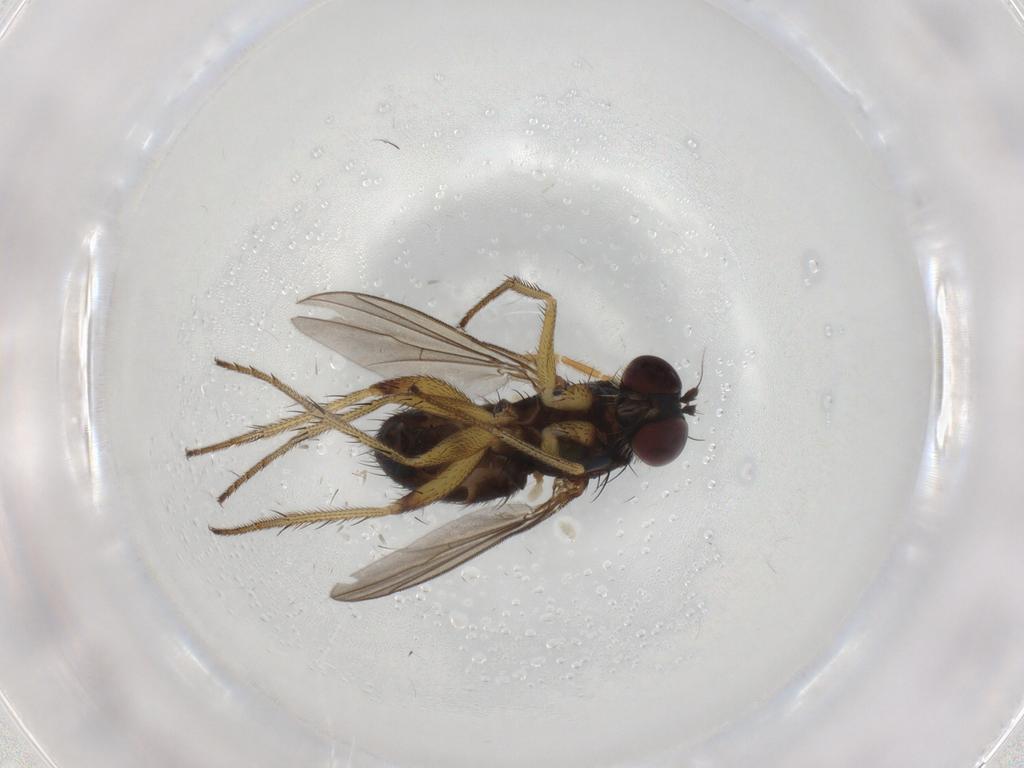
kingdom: Animalia
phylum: Arthropoda
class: Insecta
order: Diptera
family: Dolichopodidae
